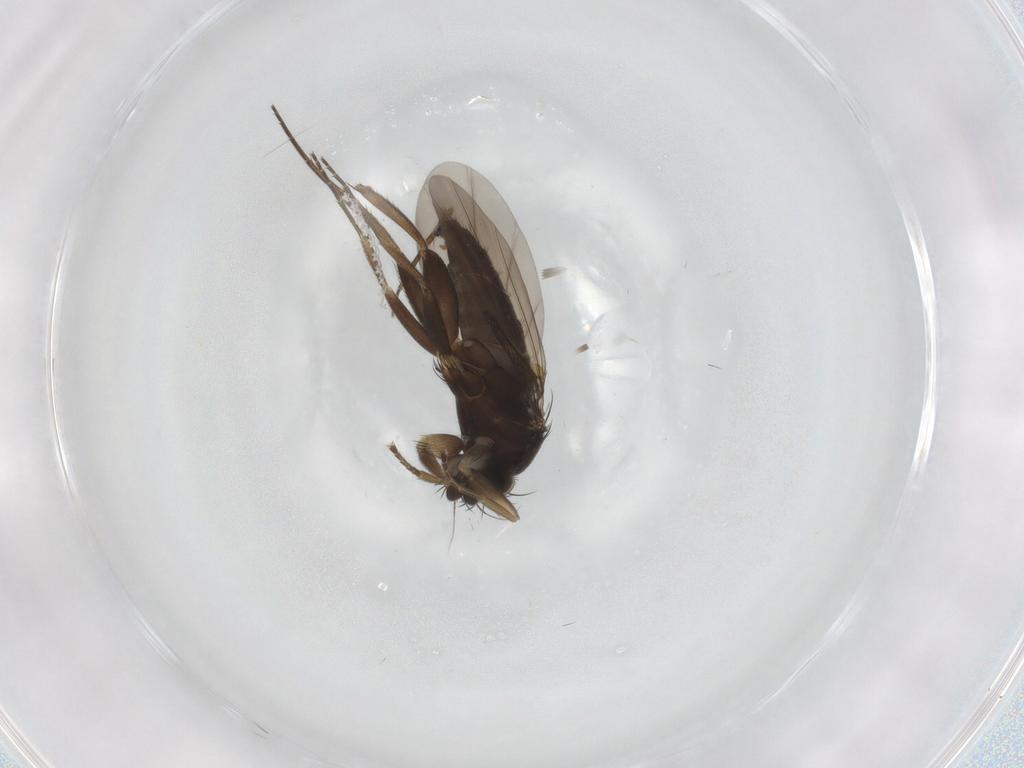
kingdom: Animalia
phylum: Arthropoda
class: Insecta
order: Diptera
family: Phoridae
